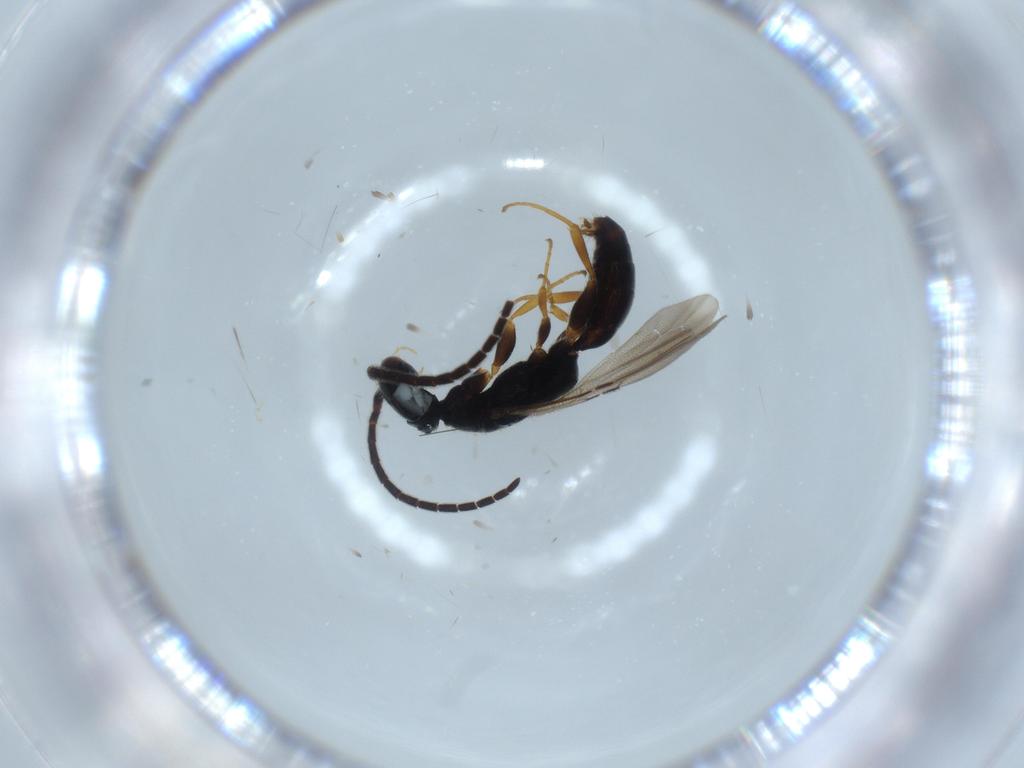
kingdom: Animalia
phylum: Arthropoda
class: Insecta
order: Hymenoptera
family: Bethylidae
